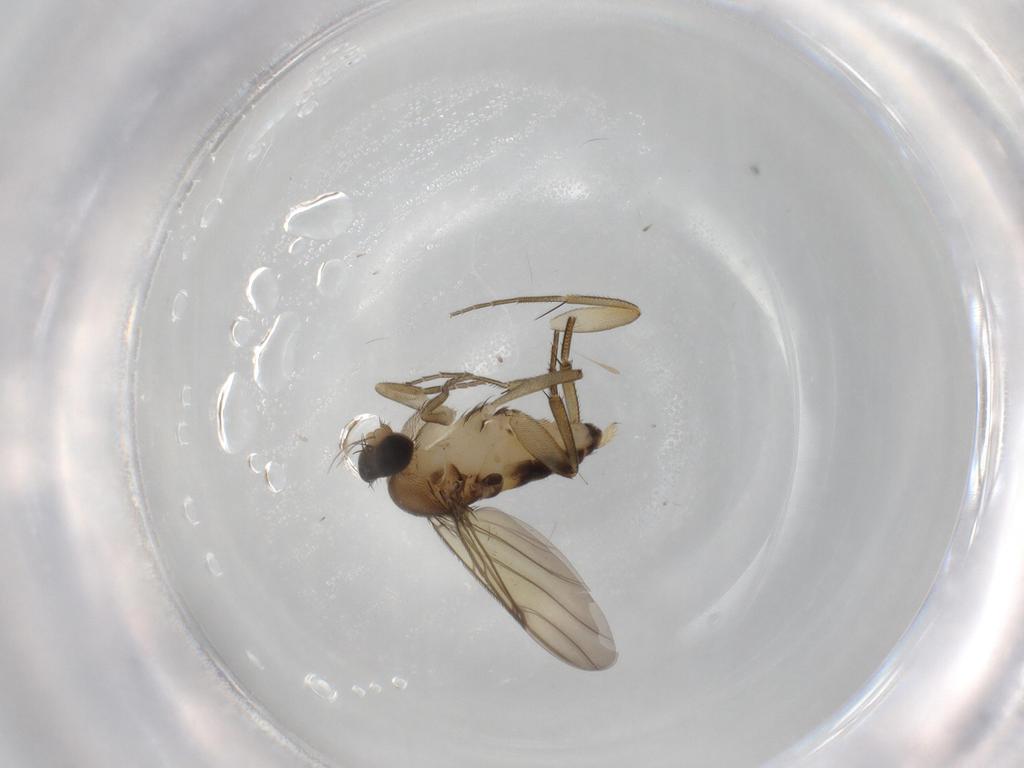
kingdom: Animalia
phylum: Arthropoda
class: Insecta
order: Diptera
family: Phoridae
